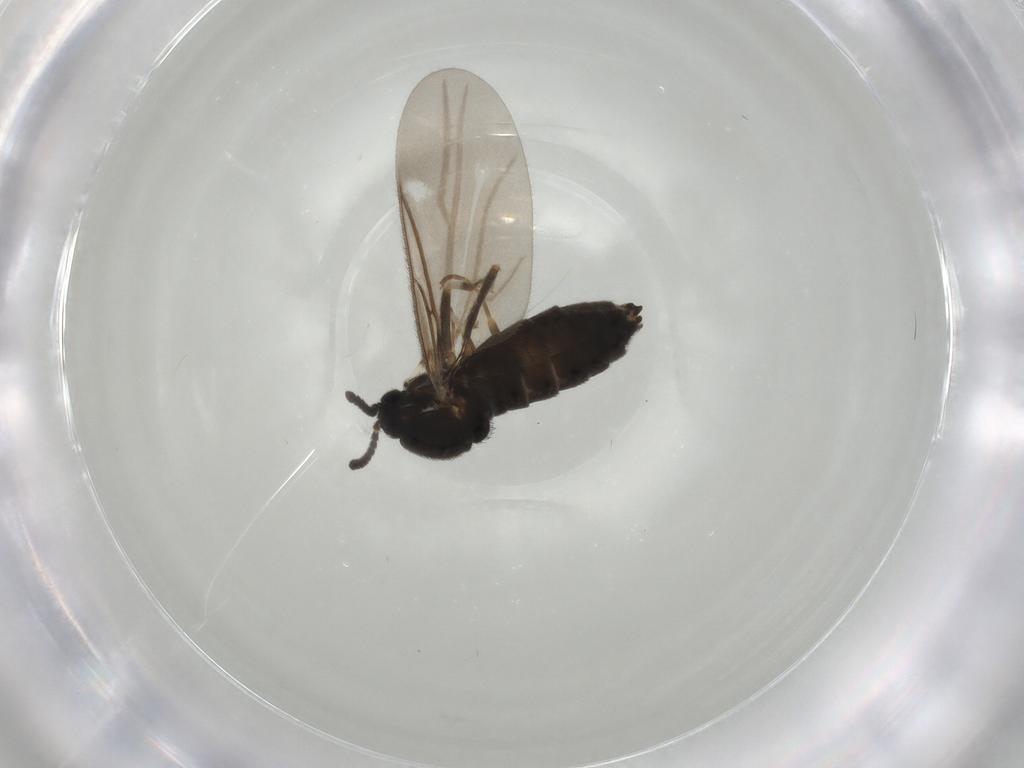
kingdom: Animalia
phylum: Arthropoda
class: Insecta
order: Diptera
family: Scatopsidae
